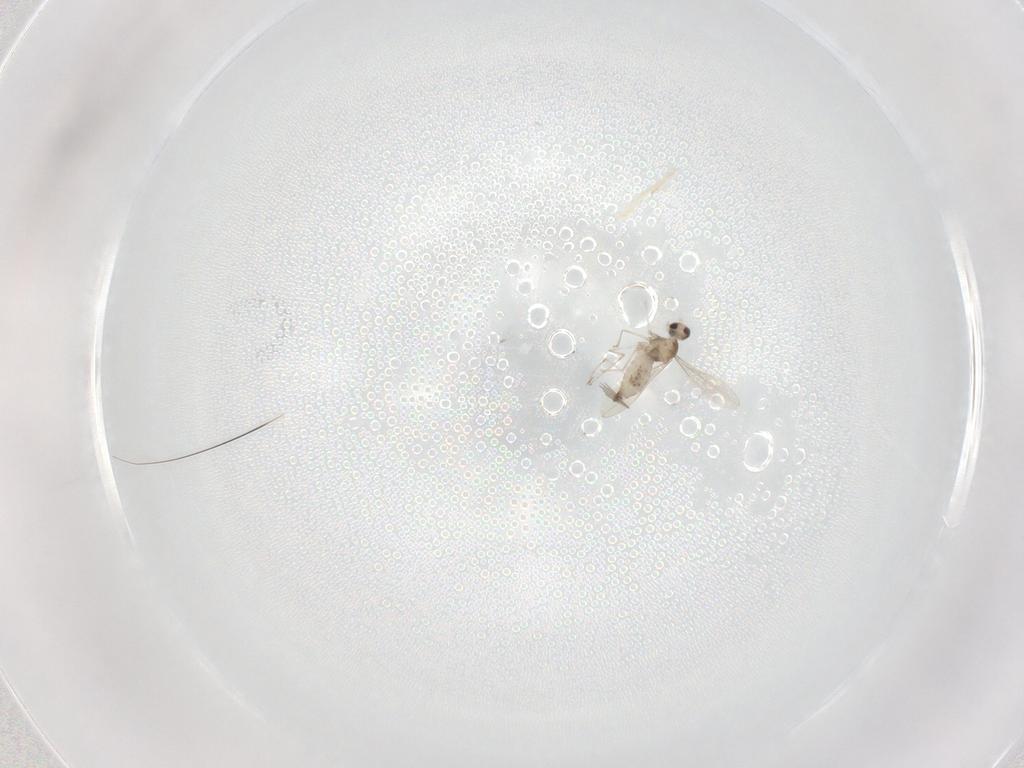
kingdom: Animalia
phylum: Arthropoda
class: Insecta
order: Diptera
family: Cecidomyiidae
